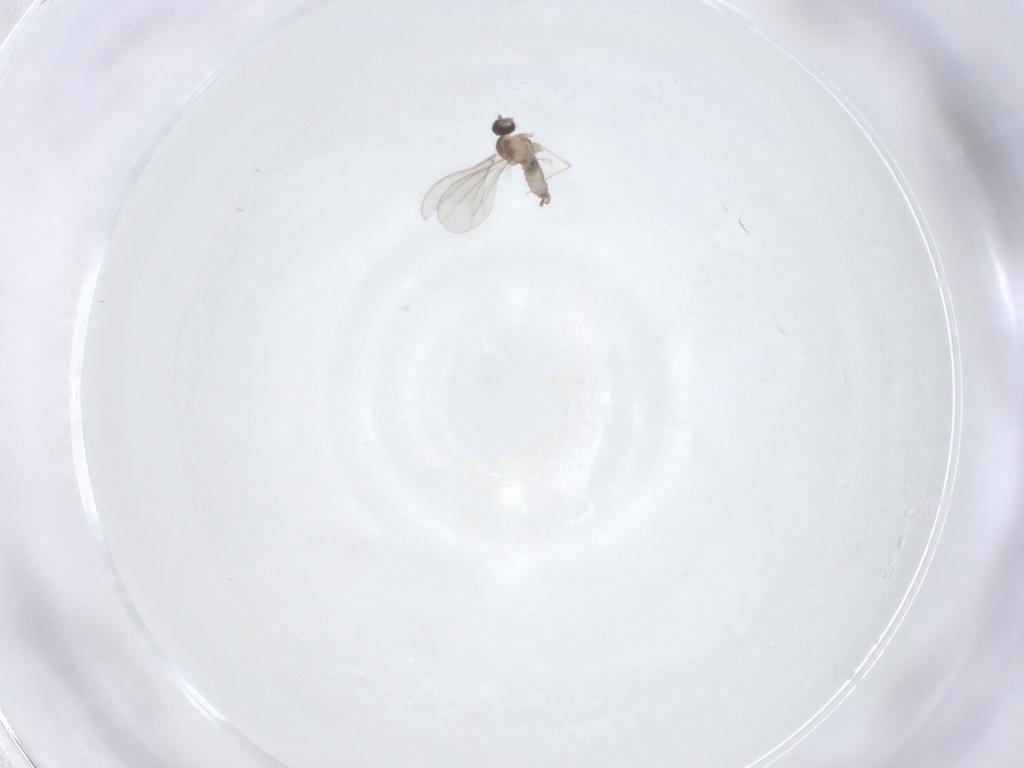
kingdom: Animalia
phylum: Arthropoda
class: Insecta
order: Diptera
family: Cecidomyiidae
